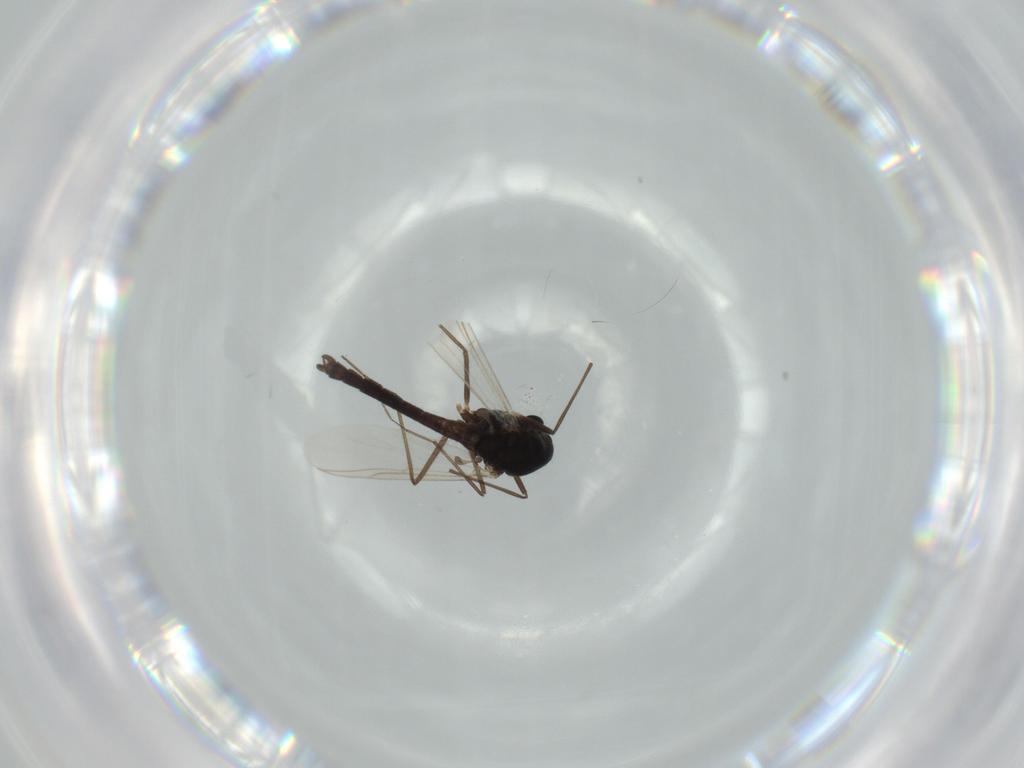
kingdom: Animalia
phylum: Arthropoda
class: Insecta
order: Diptera
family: Chironomidae
